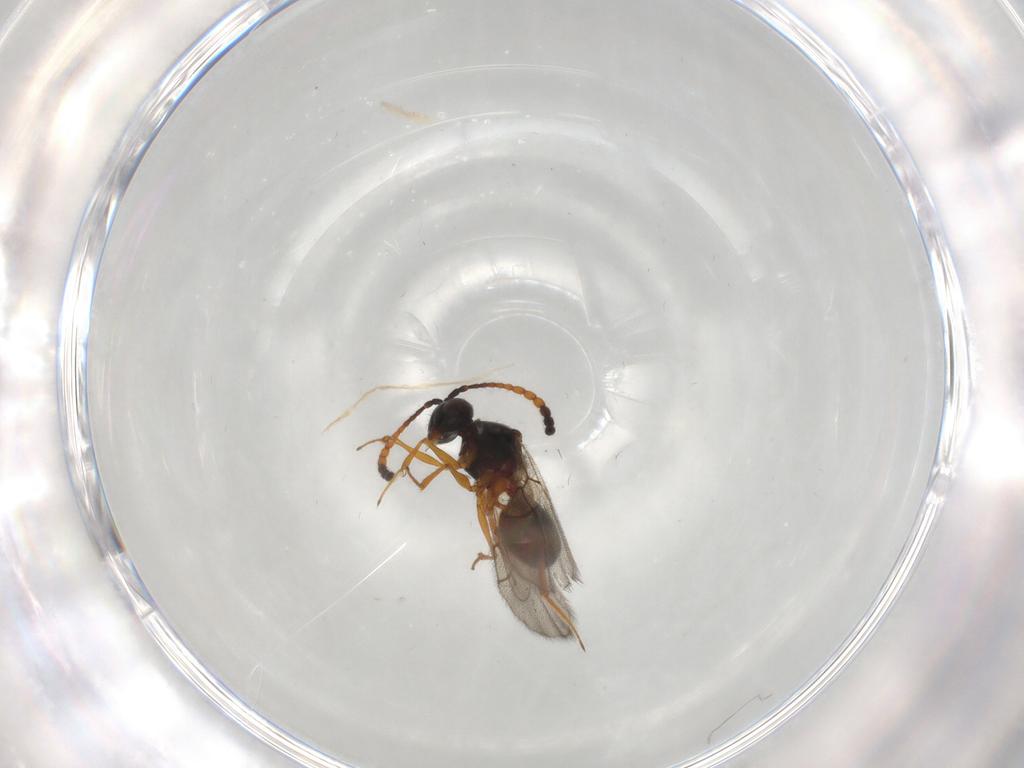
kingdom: Animalia
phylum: Arthropoda
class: Insecta
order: Hymenoptera
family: Figitidae
